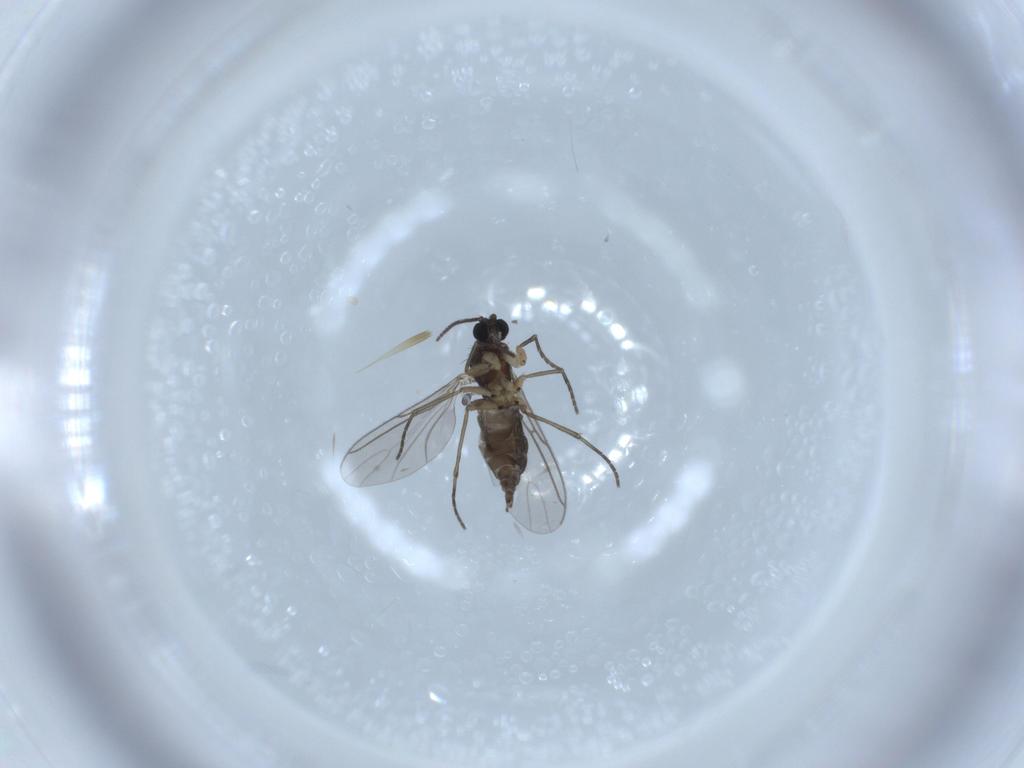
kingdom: Animalia
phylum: Arthropoda
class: Insecta
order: Diptera
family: Sciaridae
